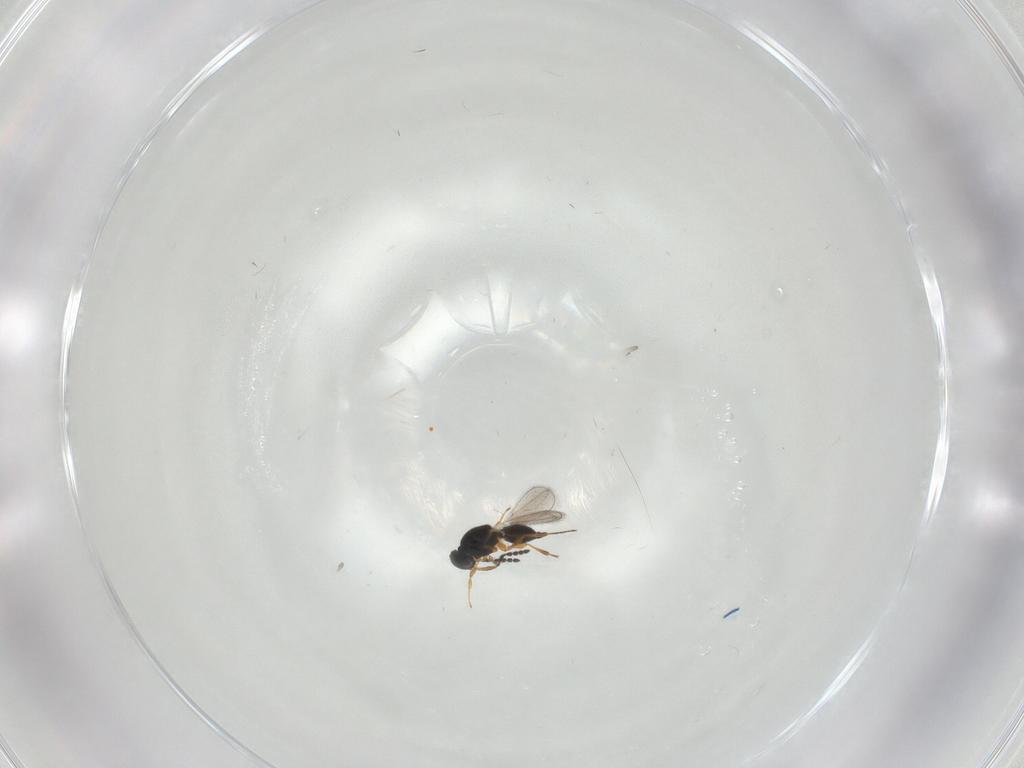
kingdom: Animalia
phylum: Arthropoda
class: Insecta
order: Hymenoptera
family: Platygastridae
